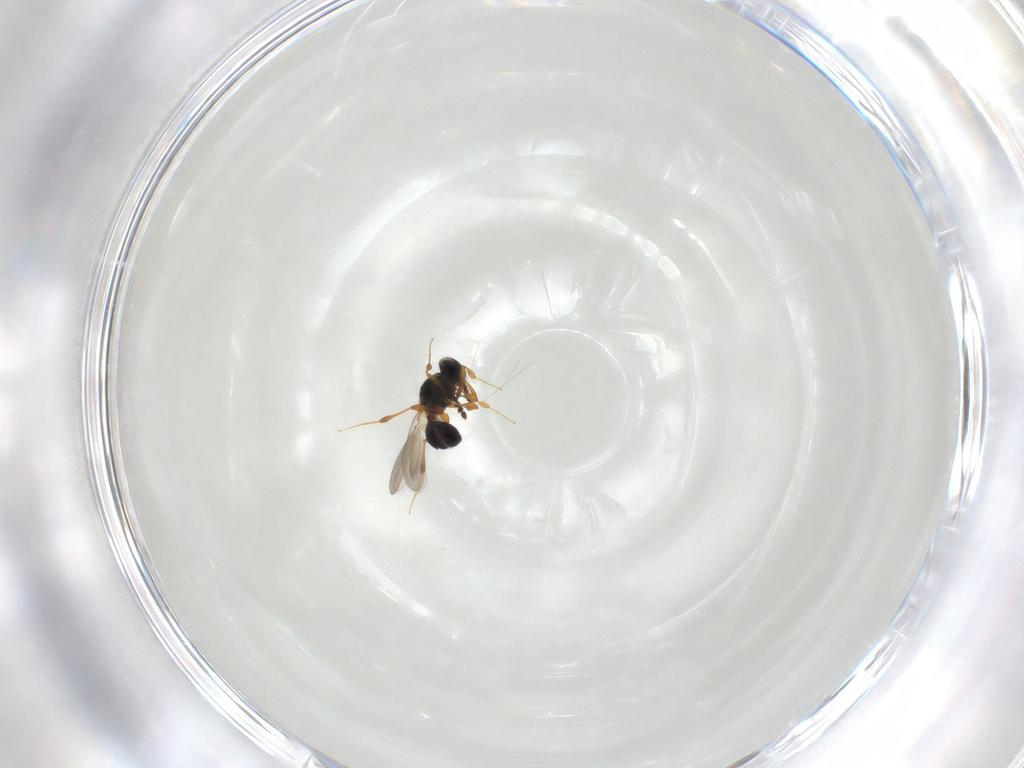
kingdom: Animalia
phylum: Arthropoda
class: Insecta
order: Hymenoptera
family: Platygastridae
